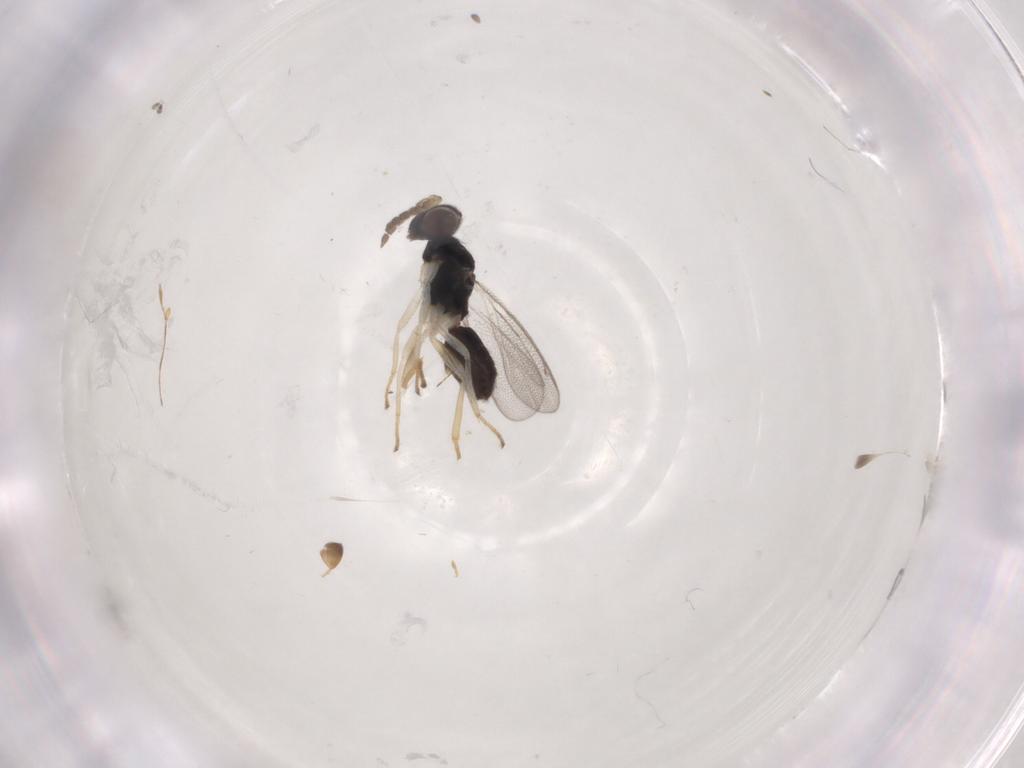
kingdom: Animalia
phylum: Arthropoda
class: Insecta
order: Hymenoptera
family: Eulophidae
